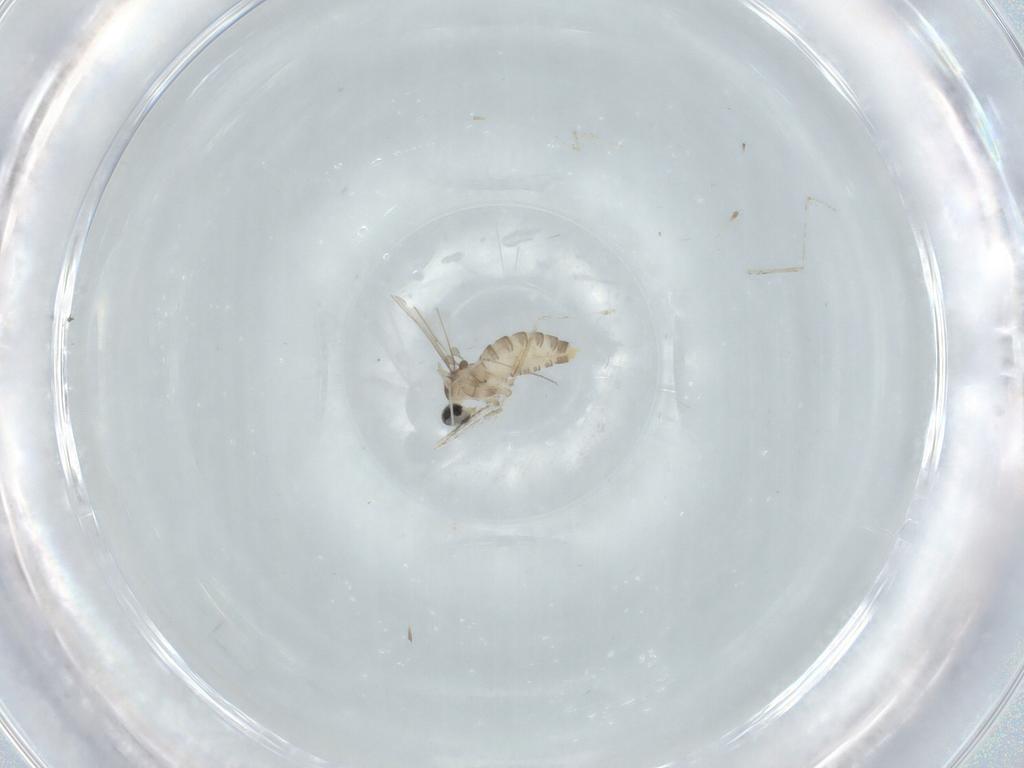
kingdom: Animalia
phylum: Arthropoda
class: Insecta
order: Diptera
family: Cecidomyiidae
